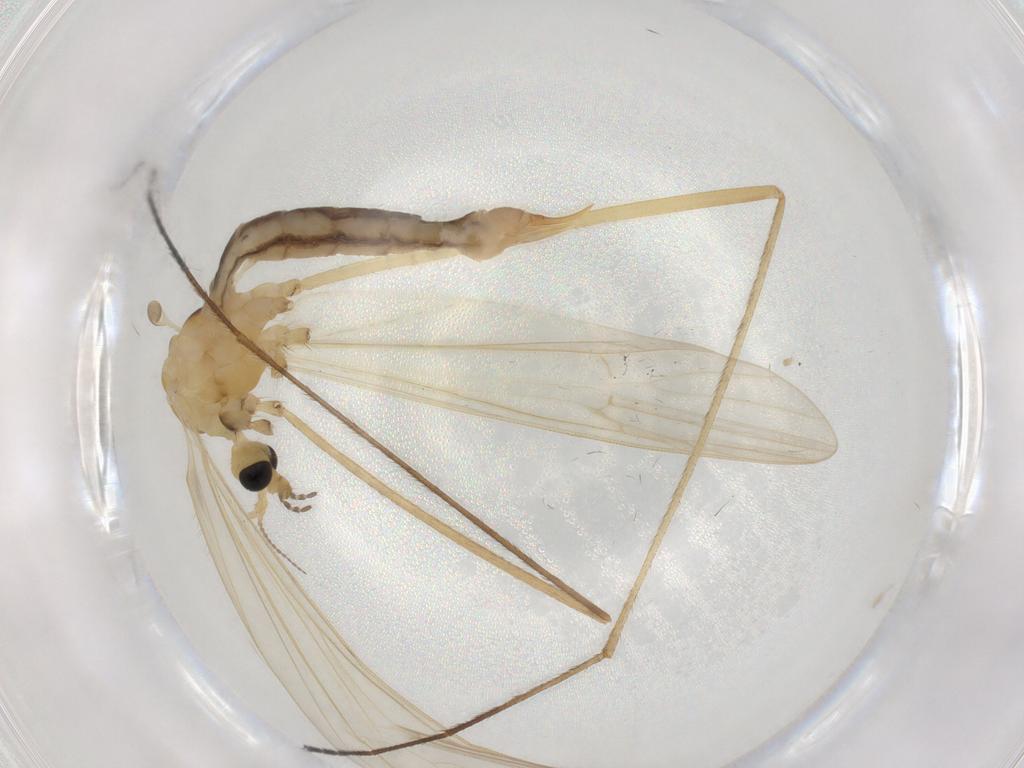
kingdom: Animalia
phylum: Arthropoda
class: Insecta
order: Diptera
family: Limoniidae
